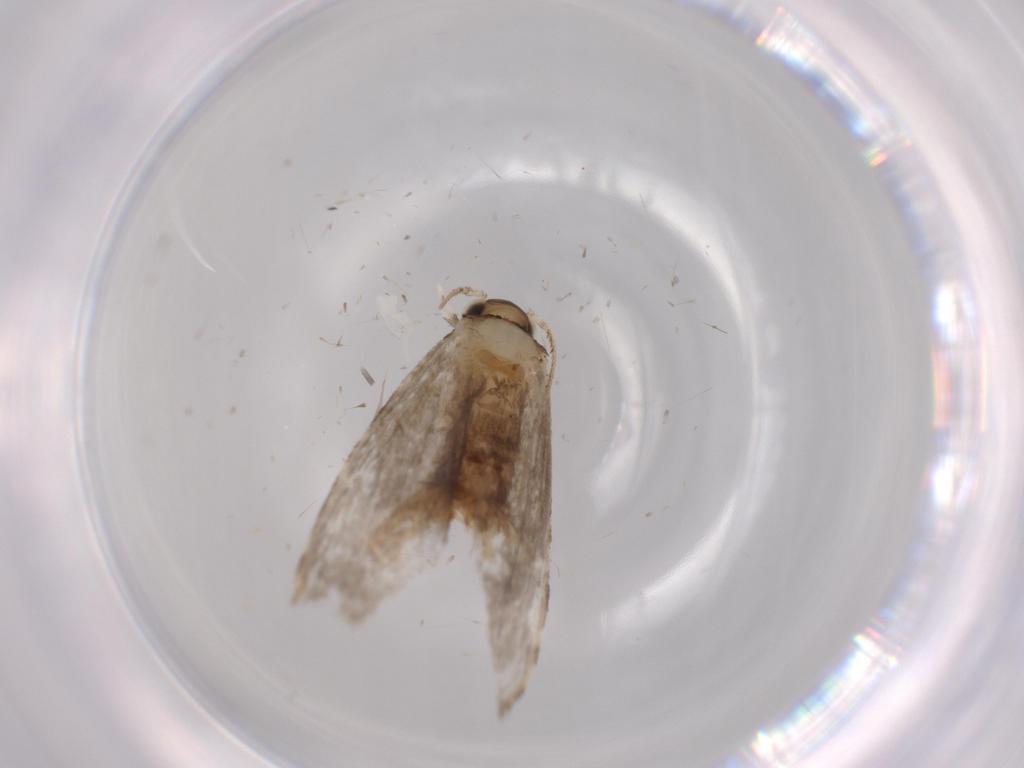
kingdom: Animalia
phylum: Arthropoda
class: Insecta
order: Lepidoptera
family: Tineidae
